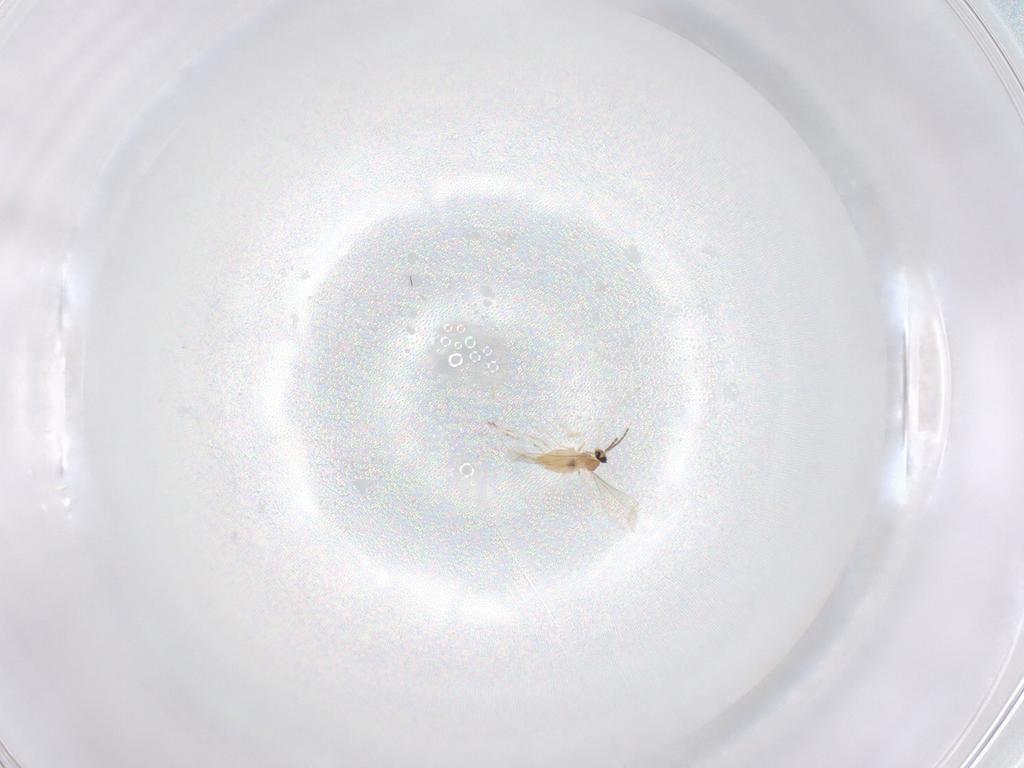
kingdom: Animalia
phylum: Arthropoda
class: Insecta
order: Diptera
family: Cecidomyiidae
